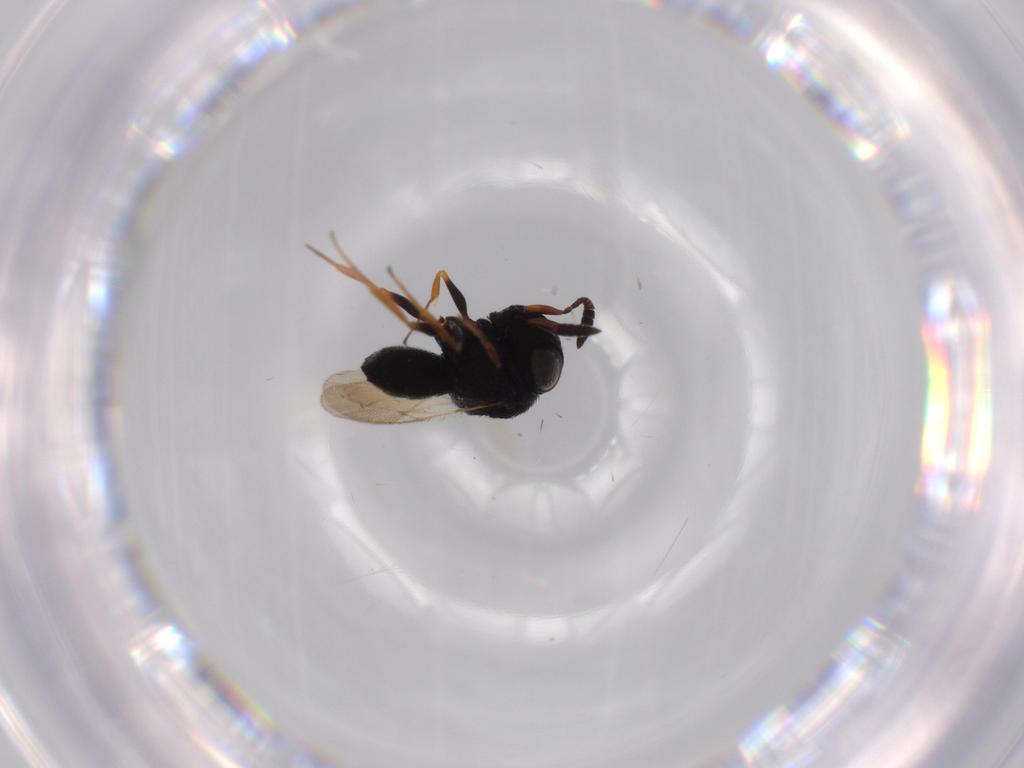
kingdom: Animalia
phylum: Arthropoda
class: Insecta
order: Hymenoptera
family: Scelionidae
